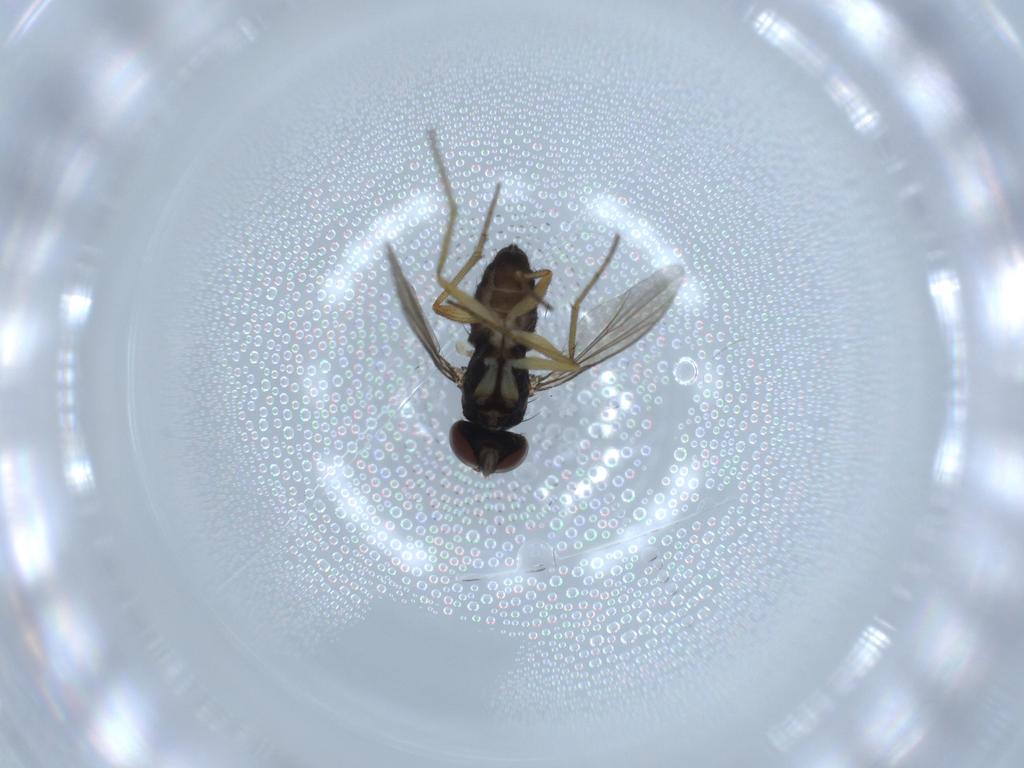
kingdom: Animalia
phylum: Arthropoda
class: Insecta
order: Diptera
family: Dolichopodidae
